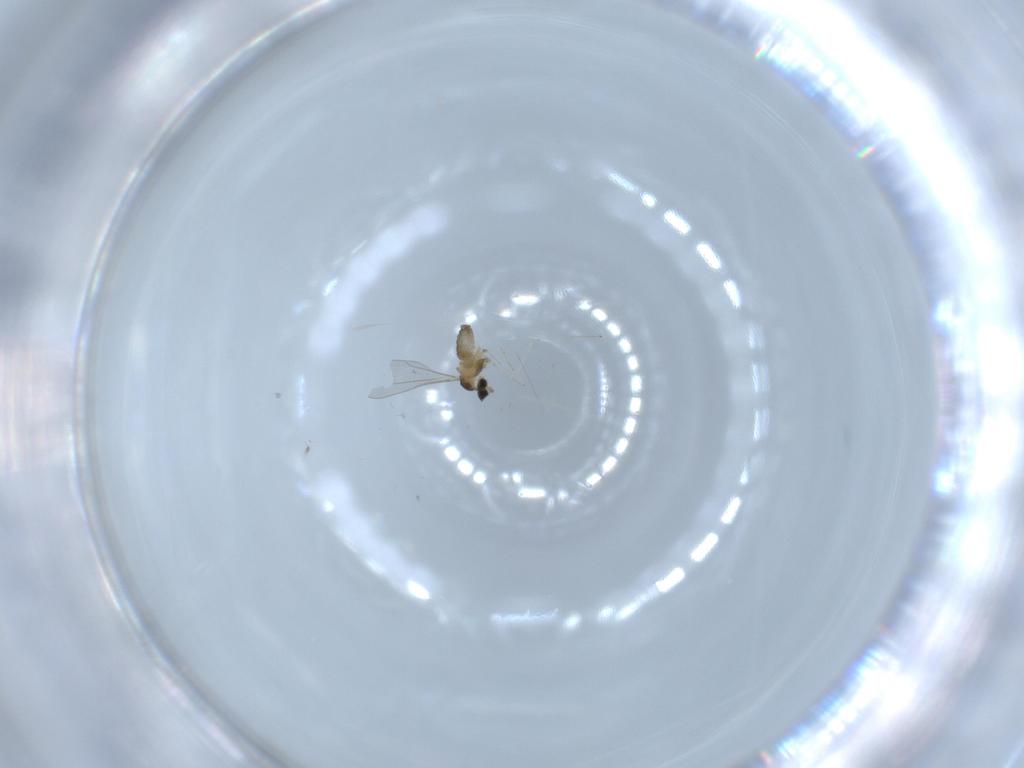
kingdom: Animalia
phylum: Arthropoda
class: Insecta
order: Diptera
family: Cecidomyiidae
